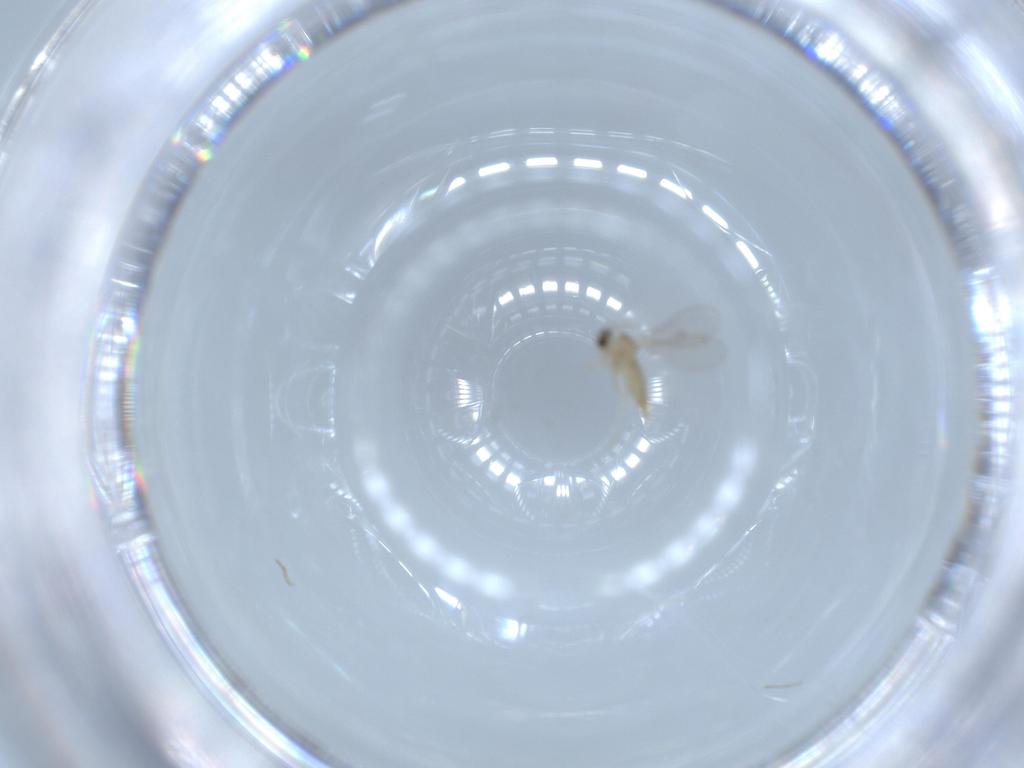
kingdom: Animalia
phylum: Arthropoda
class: Insecta
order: Diptera
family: Cecidomyiidae
